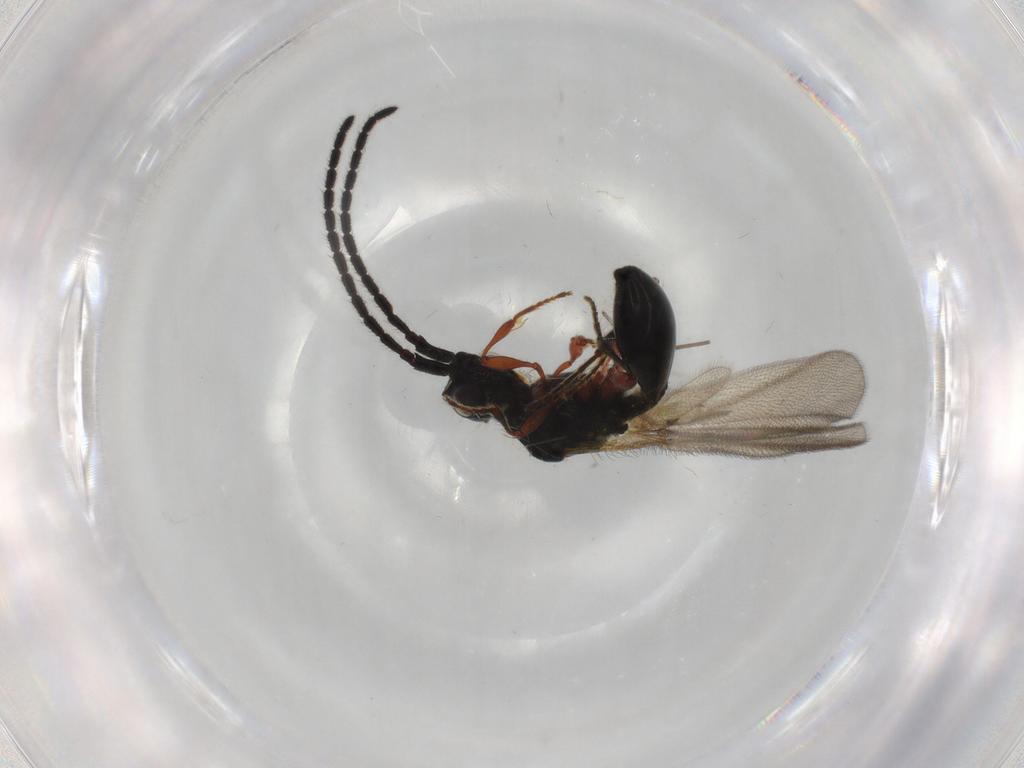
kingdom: Animalia
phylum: Arthropoda
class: Insecta
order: Hymenoptera
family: Diapriidae
